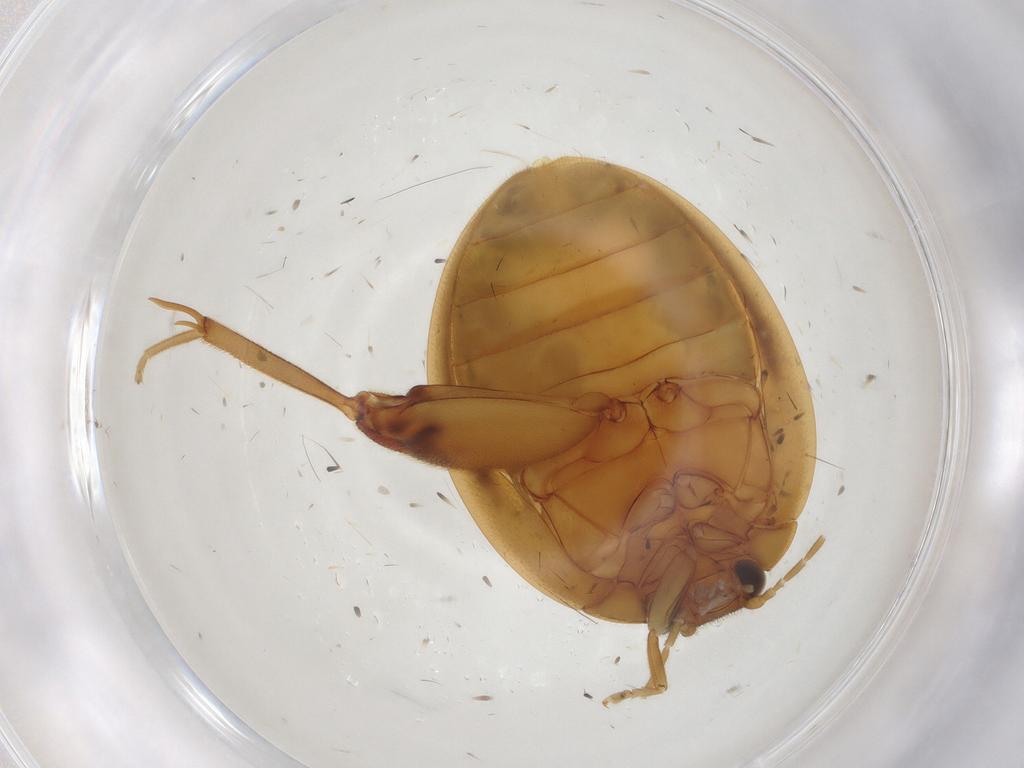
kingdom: Animalia
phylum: Arthropoda
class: Insecta
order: Coleoptera
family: Scirtidae
